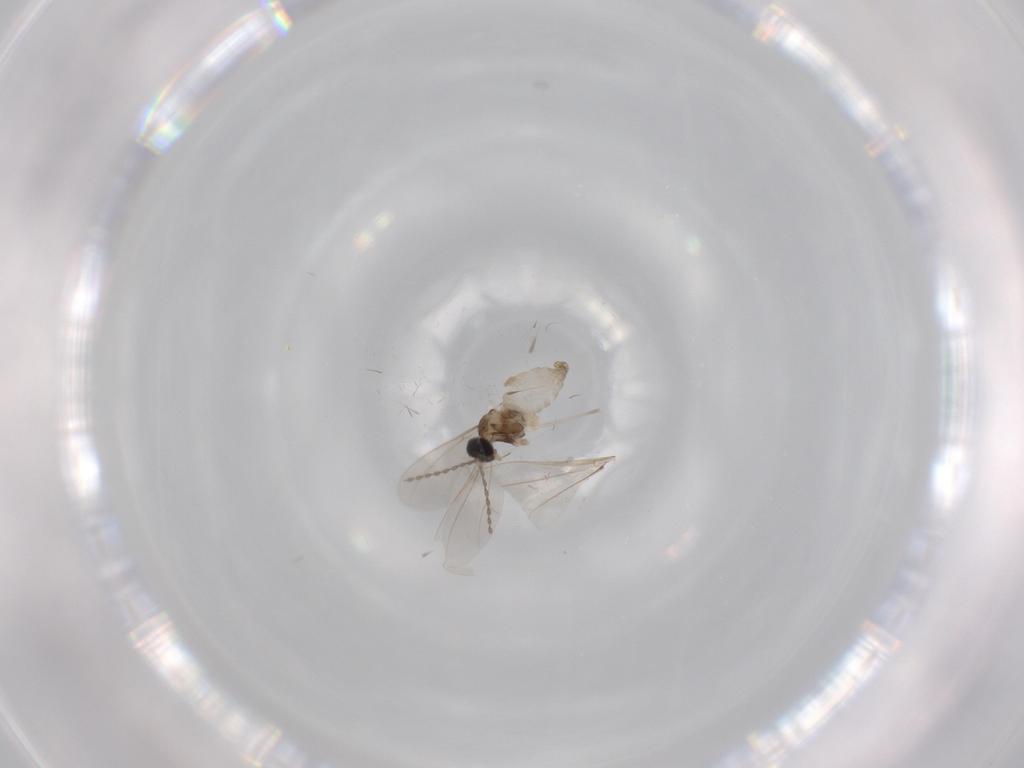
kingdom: Animalia
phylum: Arthropoda
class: Insecta
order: Diptera
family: Cecidomyiidae
